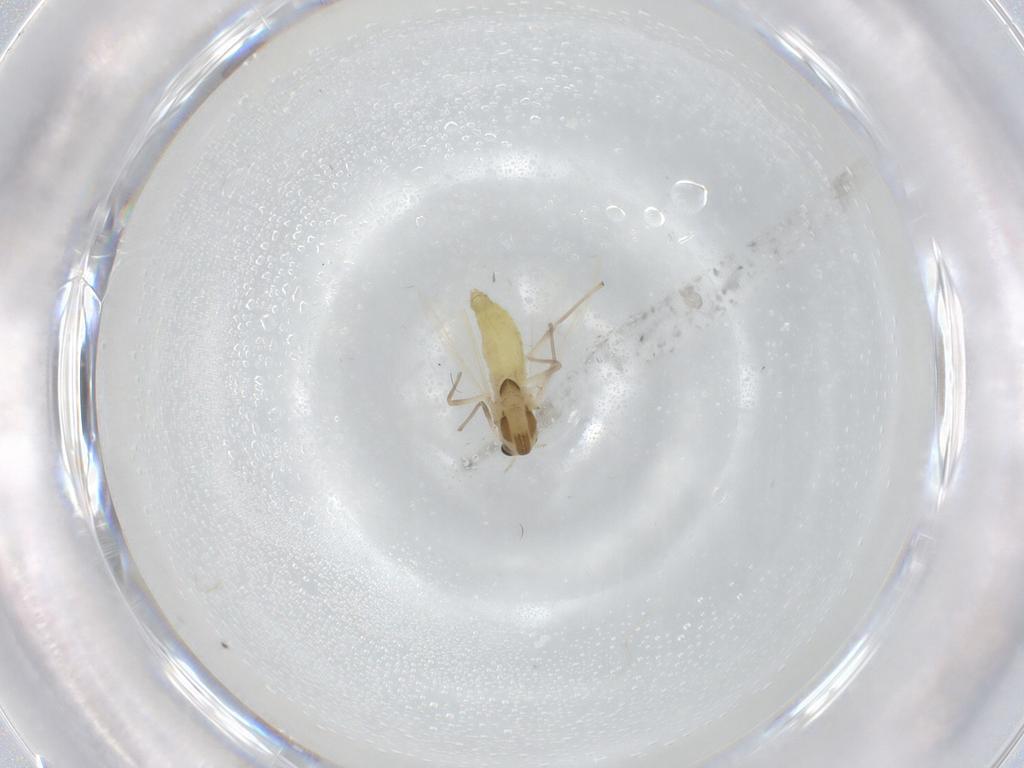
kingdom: Animalia
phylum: Arthropoda
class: Insecta
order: Diptera
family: Chironomidae
